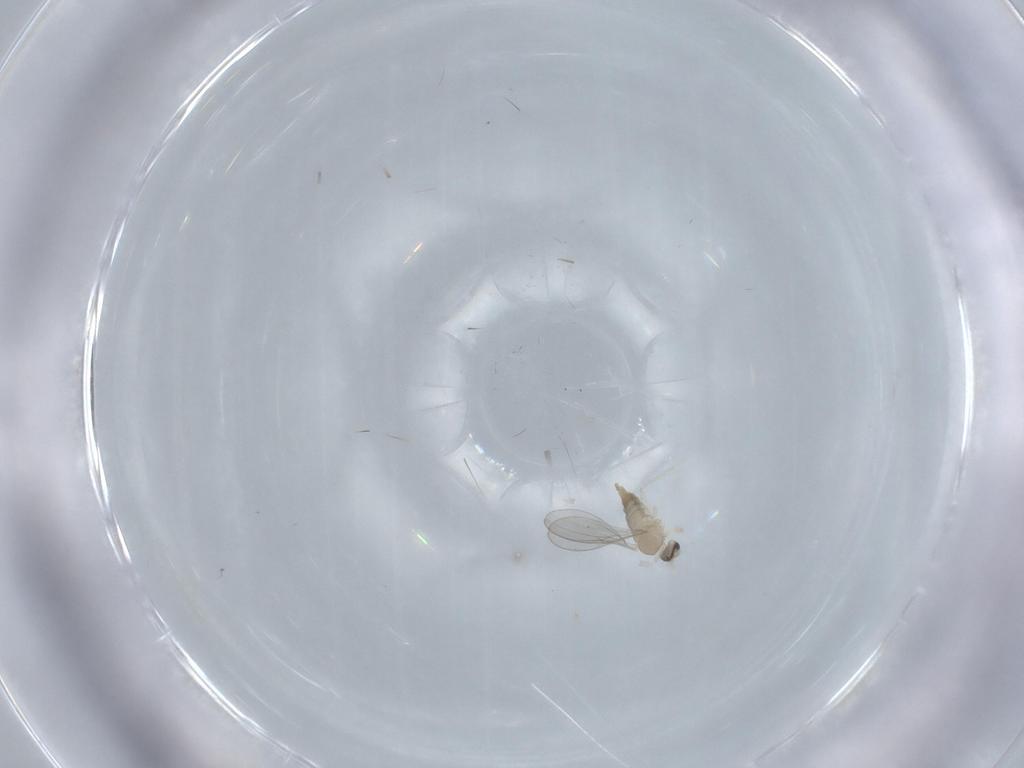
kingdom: Animalia
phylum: Arthropoda
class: Insecta
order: Diptera
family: Cecidomyiidae
